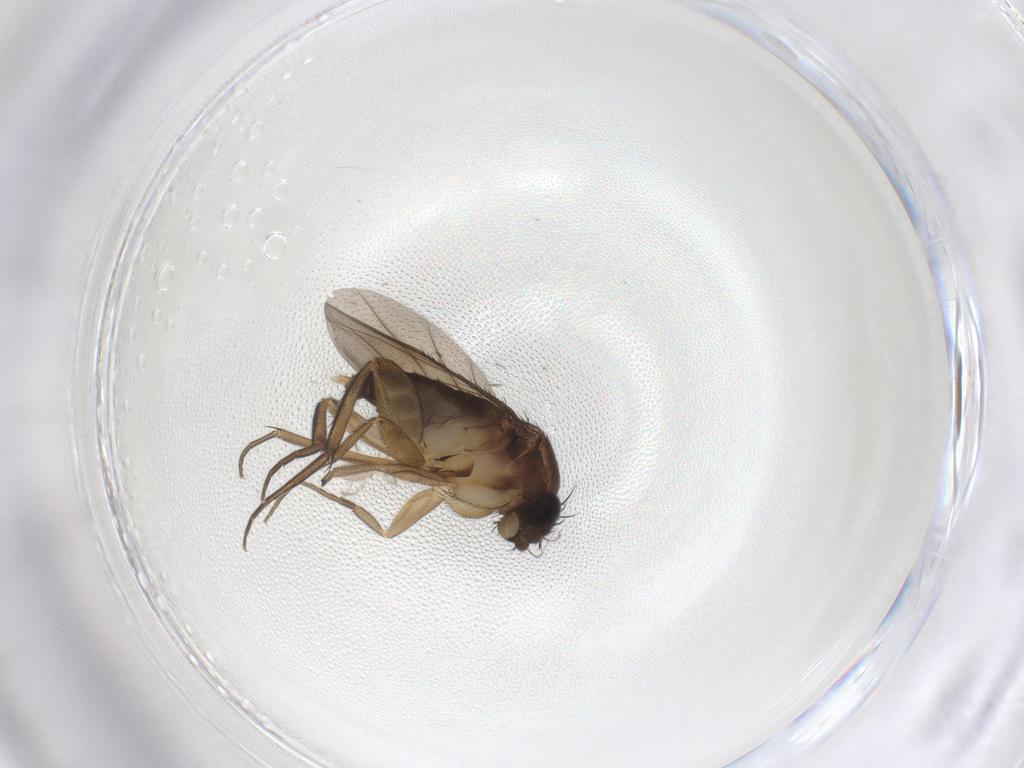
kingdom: Animalia
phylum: Arthropoda
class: Insecta
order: Diptera
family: Phoridae
